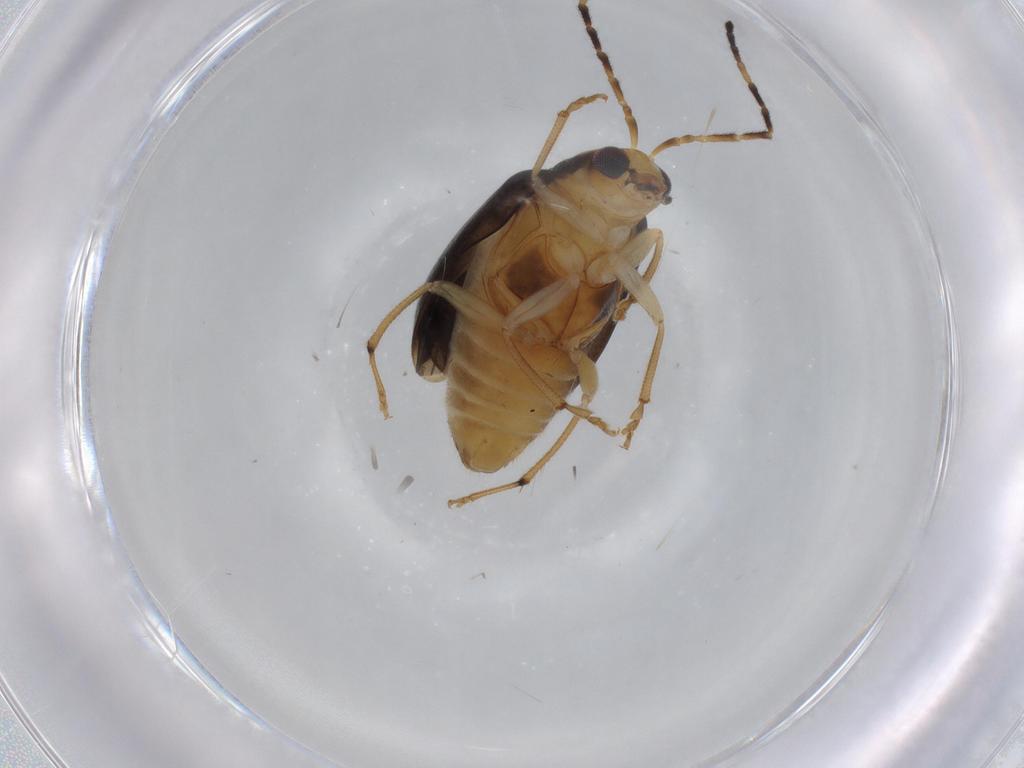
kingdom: Animalia
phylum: Arthropoda
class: Insecta
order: Coleoptera
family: Chrysomelidae
